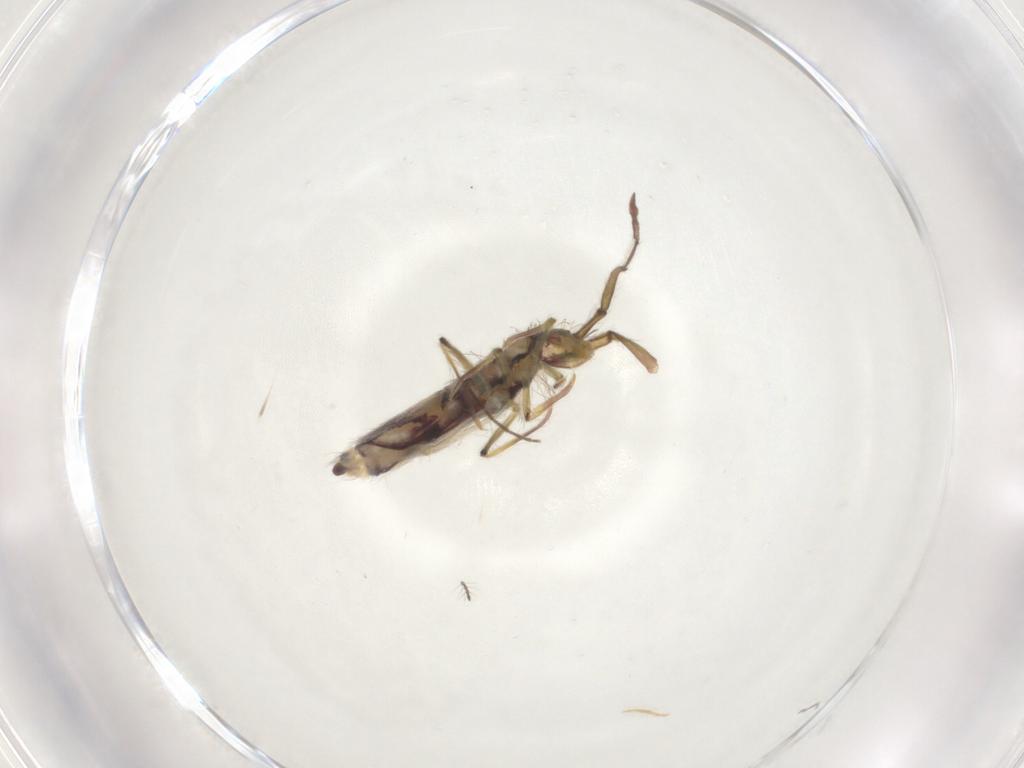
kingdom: Animalia
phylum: Arthropoda
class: Collembola
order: Entomobryomorpha
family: Entomobryidae
